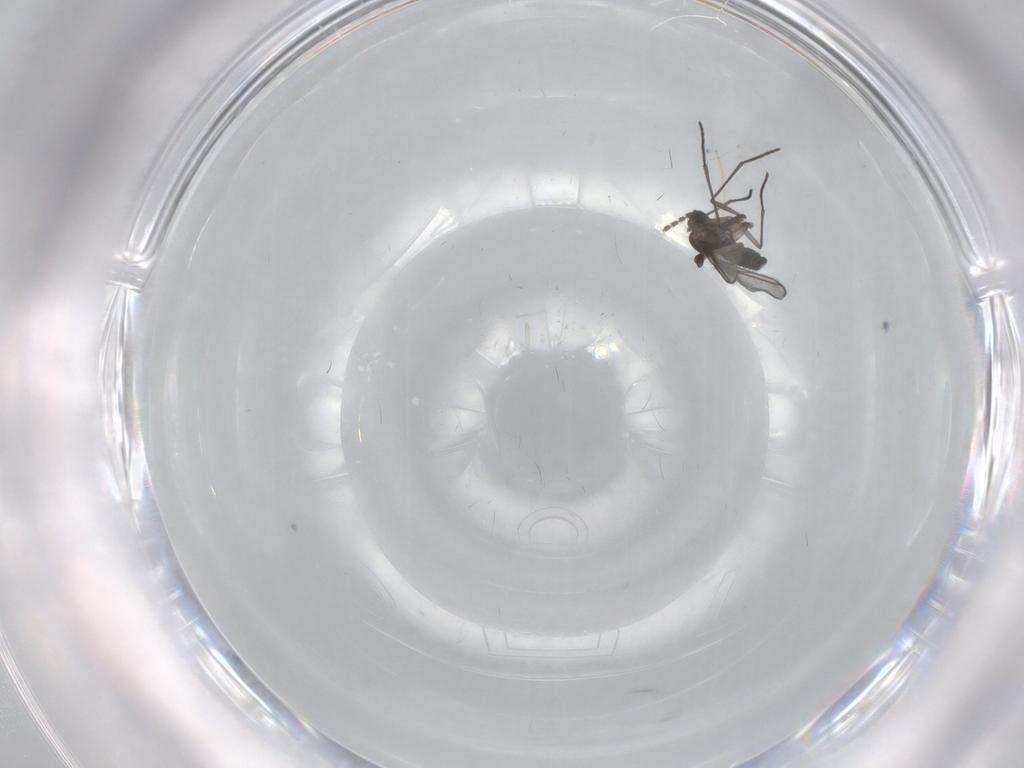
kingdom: Animalia
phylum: Arthropoda
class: Insecta
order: Diptera
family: Chironomidae
